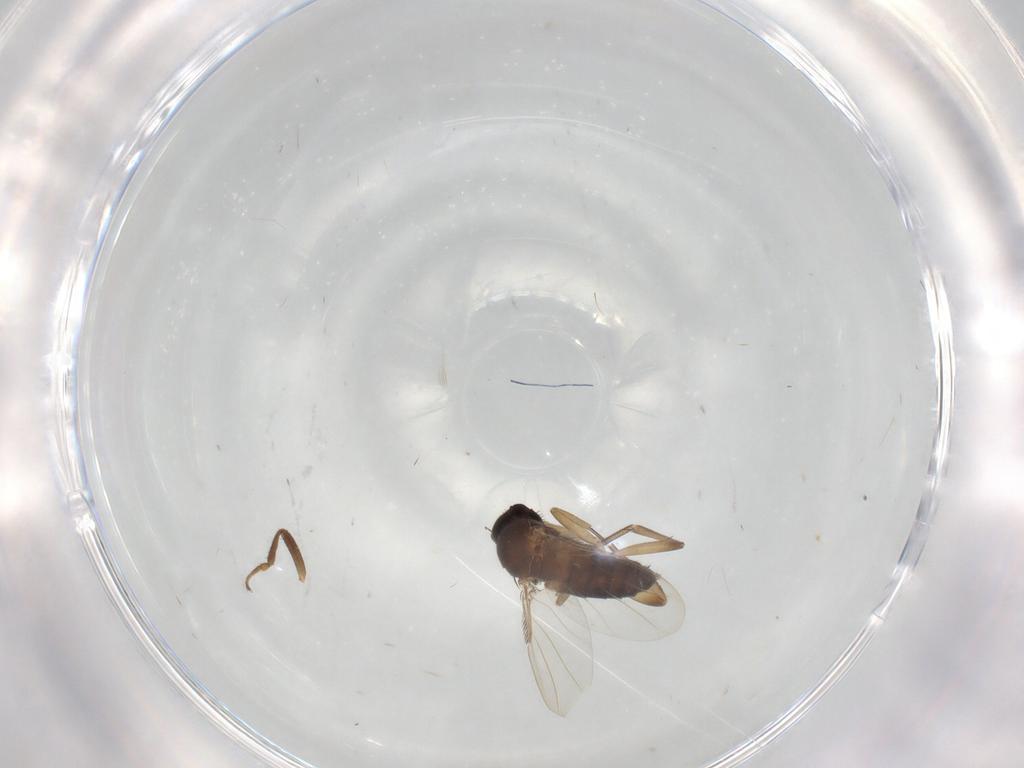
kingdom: Animalia
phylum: Arthropoda
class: Insecta
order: Diptera
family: Phoridae
